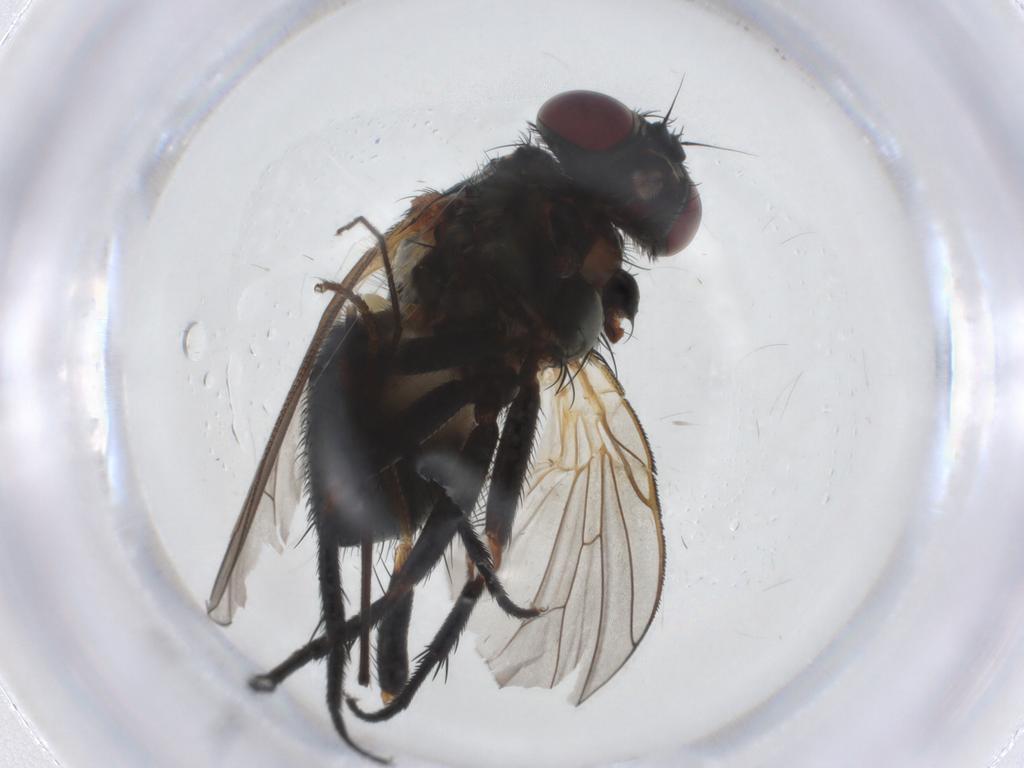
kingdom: Animalia
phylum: Arthropoda
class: Insecta
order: Diptera
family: Fannia
